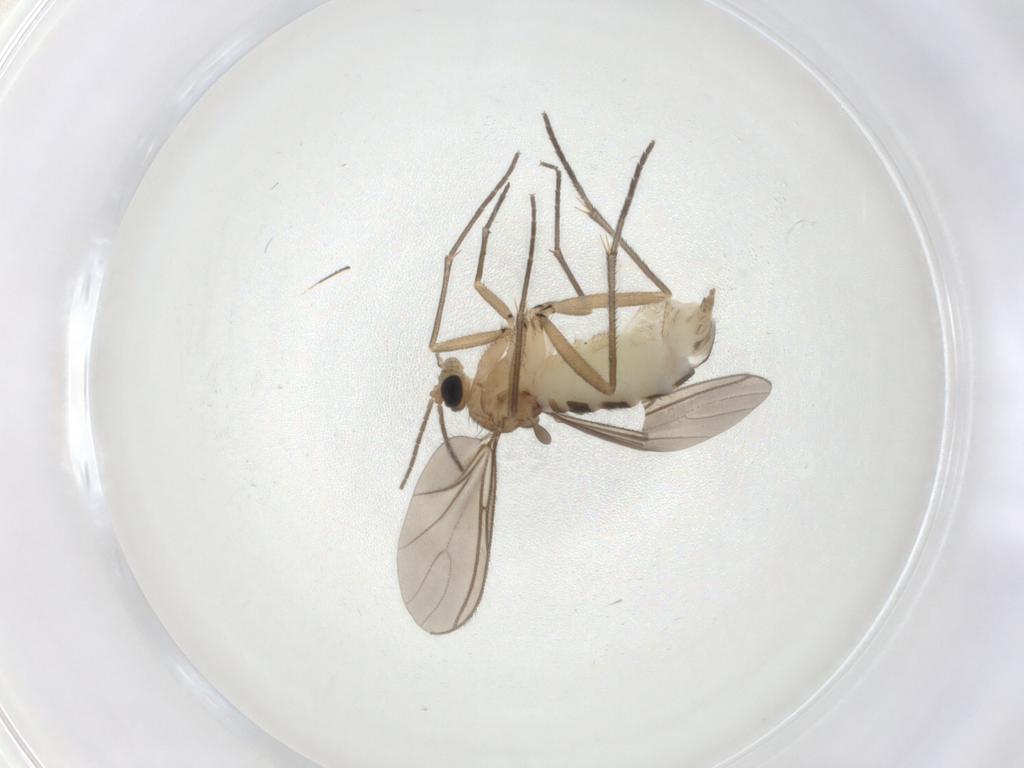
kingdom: Animalia
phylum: Arthropoda
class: Insecta
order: Diptera
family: Sciaridae
